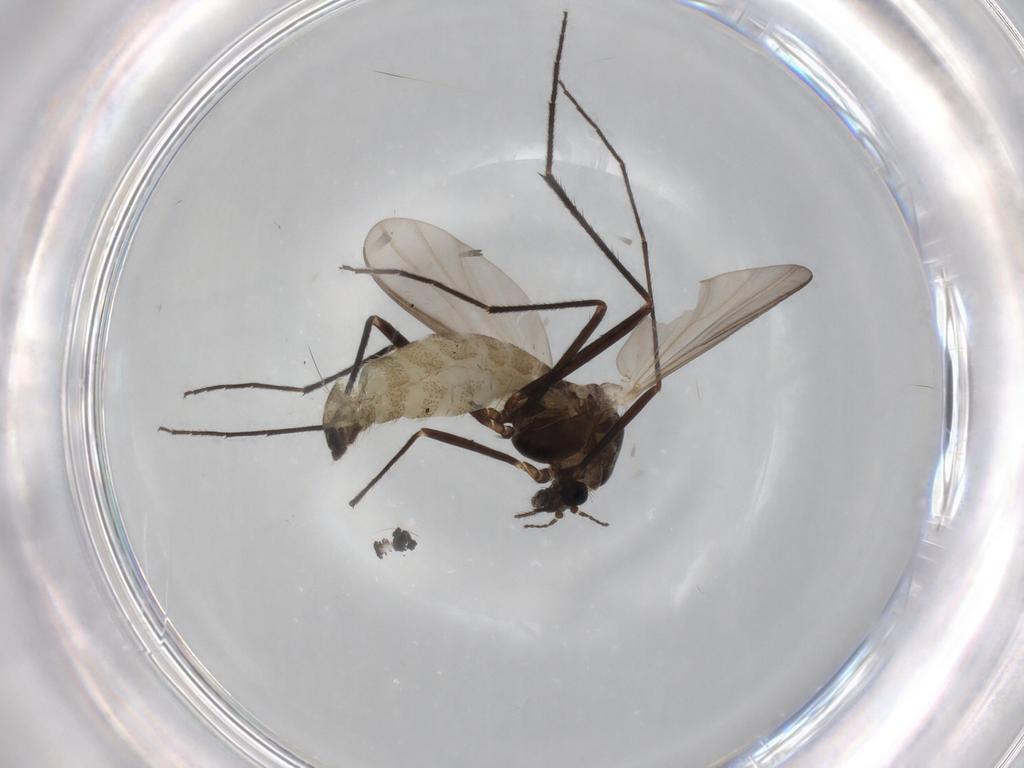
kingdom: Animalia
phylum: Arthropoda
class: Insecta
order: Diptera
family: Chironomidae
